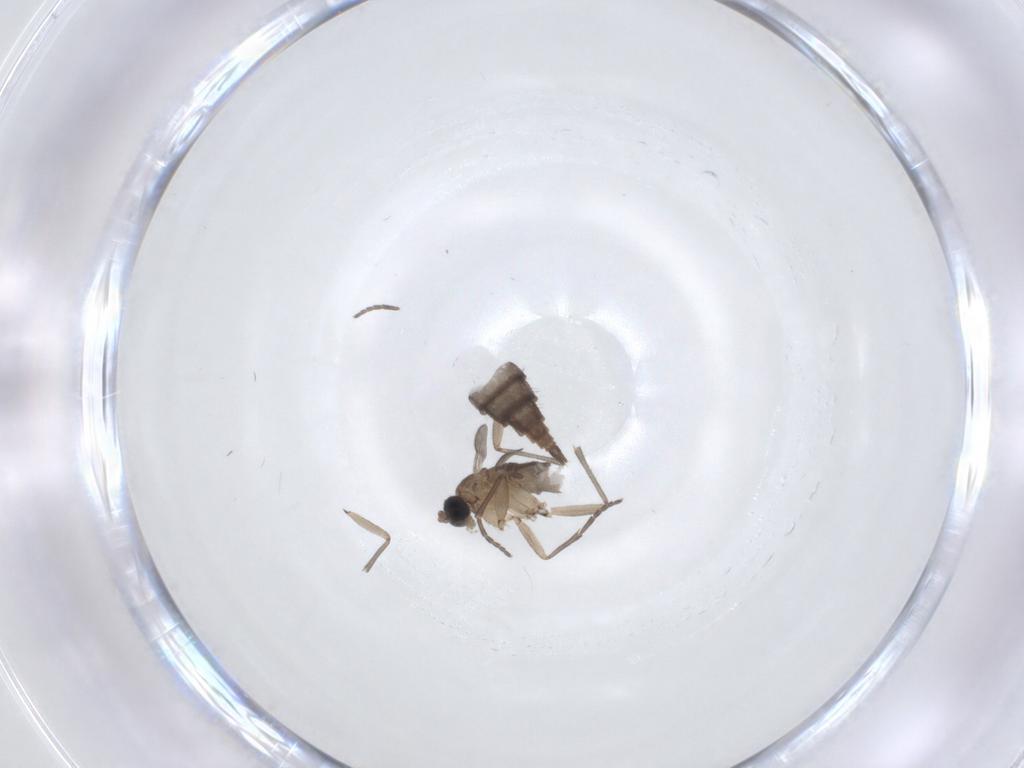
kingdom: Animalia
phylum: Arthropoda
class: Insecta
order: Diptera
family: Sciaridae
